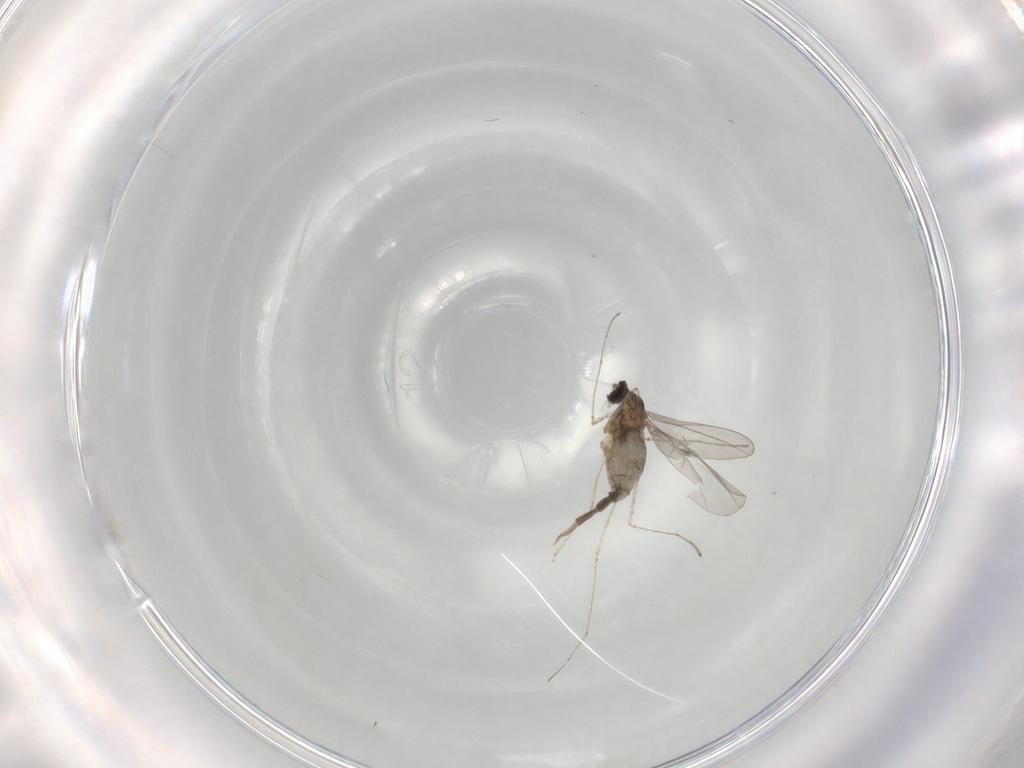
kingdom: Animalia
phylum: Arthropoda
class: Insecta
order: Diptera
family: Cecidomyiidae
